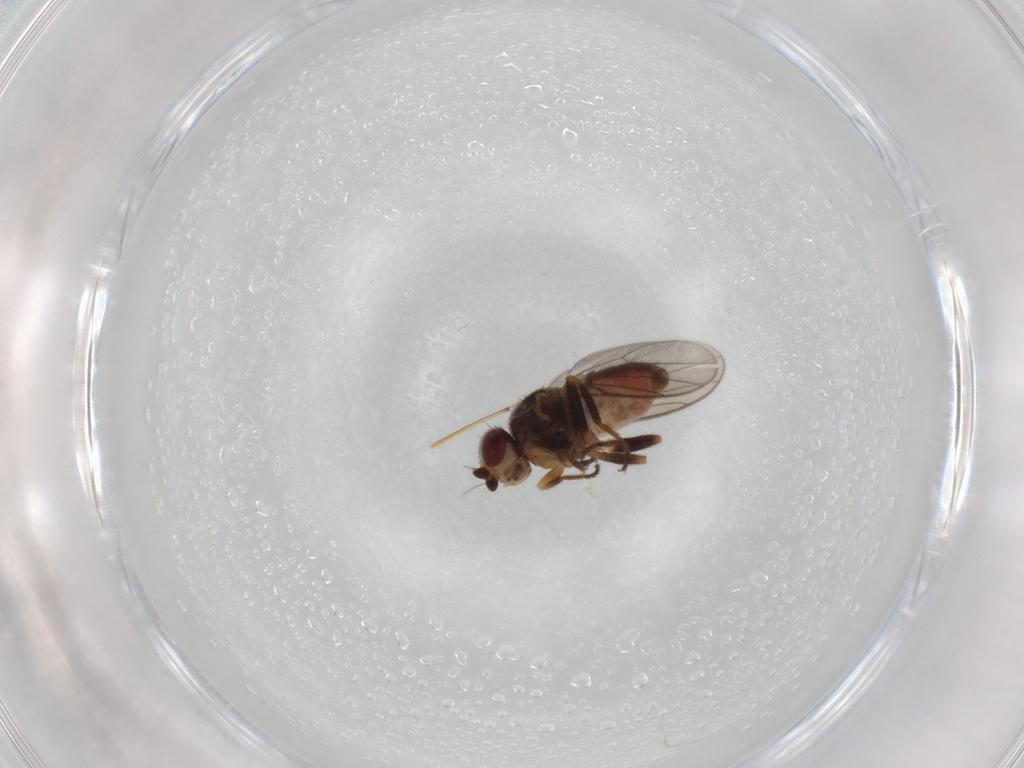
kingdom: Animalia
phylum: Arthropoda
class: Insecta
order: Diptera
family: Chloropidae
